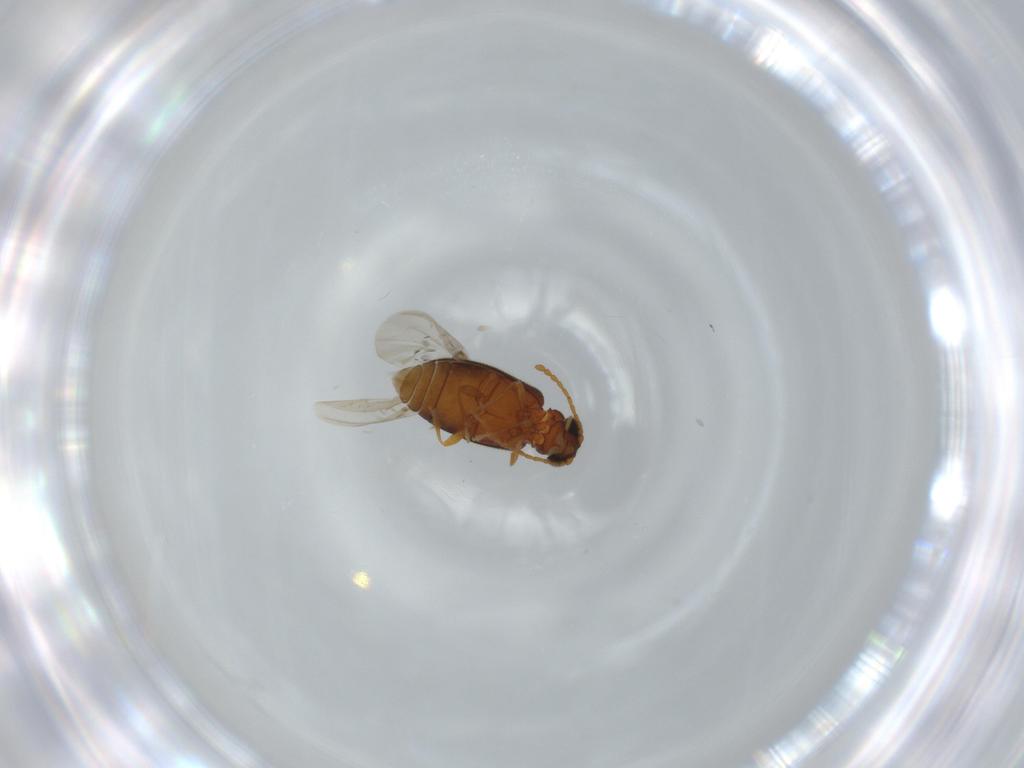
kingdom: Animalia
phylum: Arthropoda
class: Insecta
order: Coleoptera
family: Aderidae
